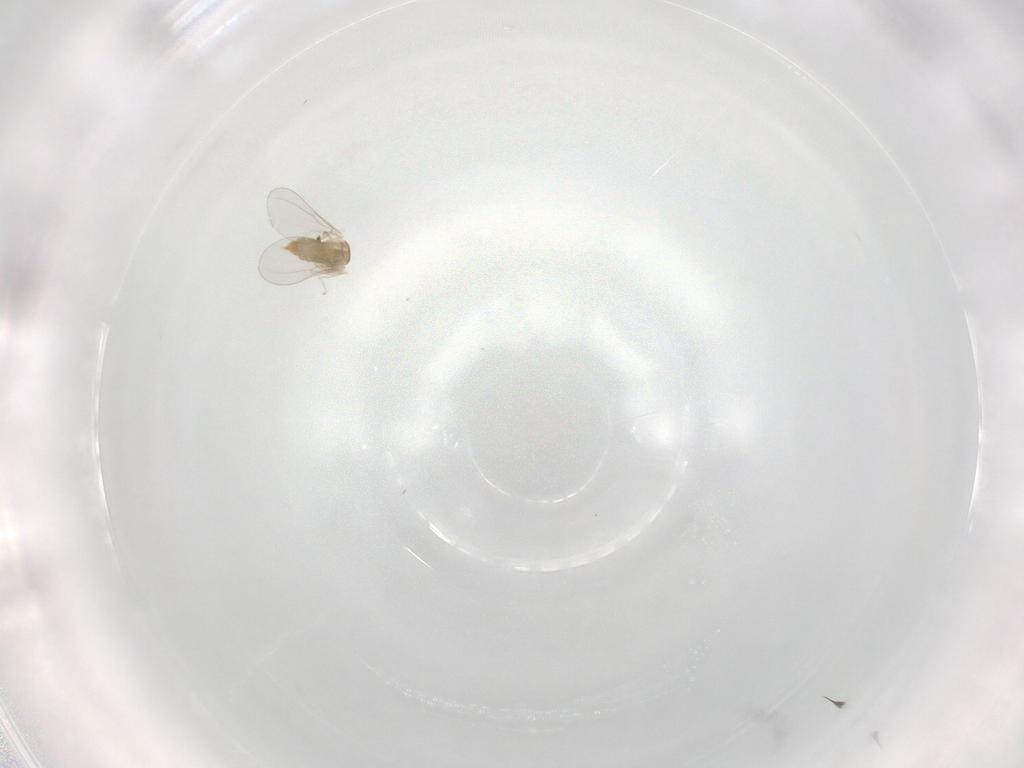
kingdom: Animalia
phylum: Arthropoda
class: Insecta
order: Diptera
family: Cecidomyiidae
